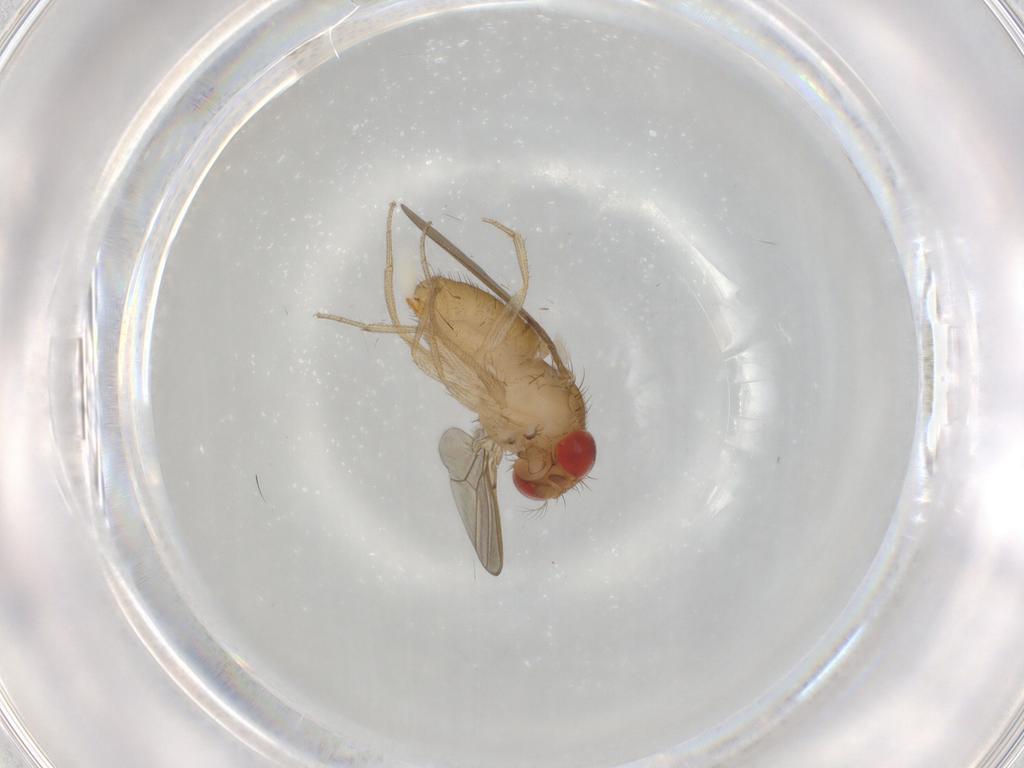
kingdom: Animalia
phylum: Arthropoda
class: Insecta
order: Diptera
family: Drosophilidae
